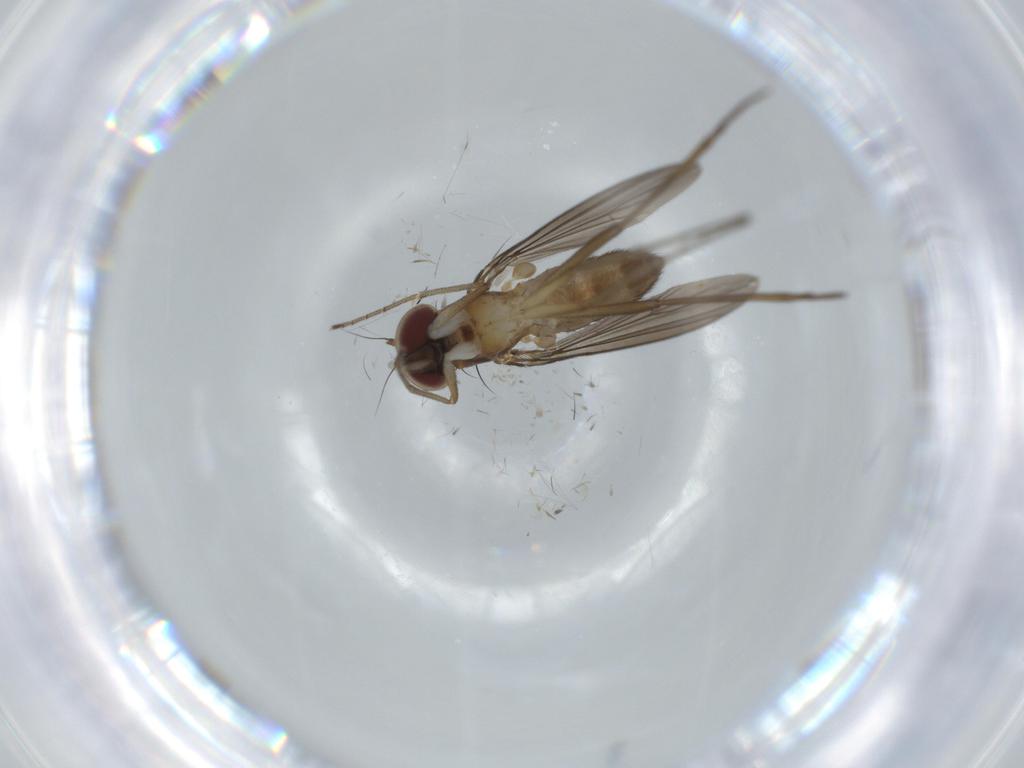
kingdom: Animalia
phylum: Arthropoda
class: Insecta
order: Diptera
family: Dolichopodidae
